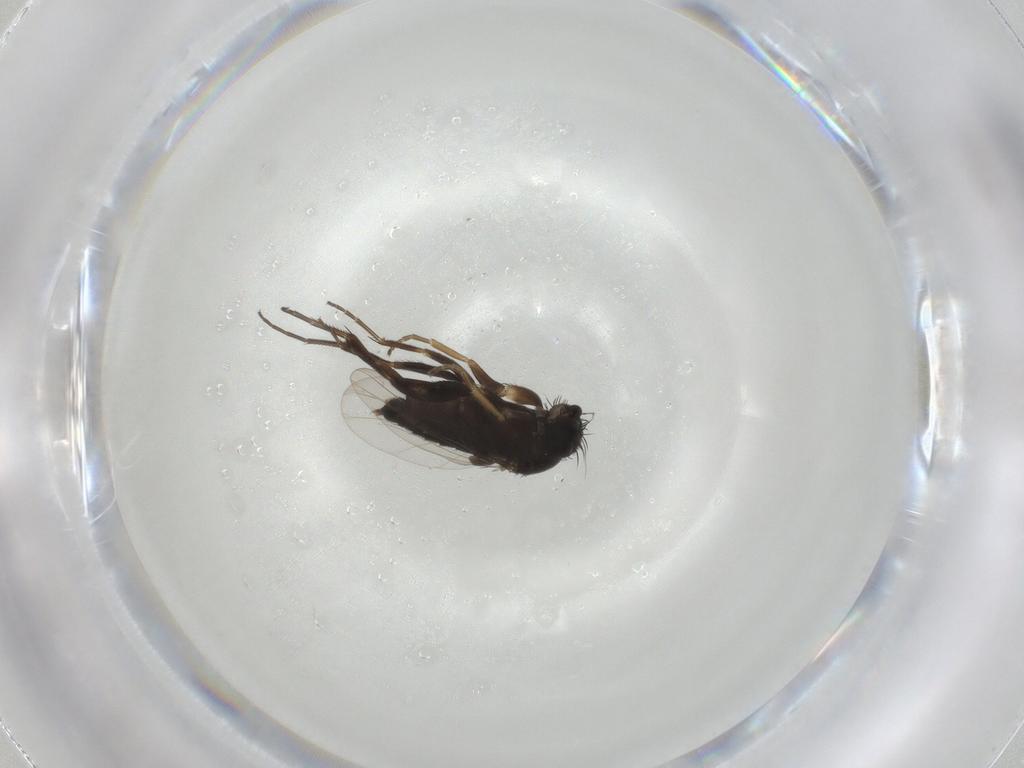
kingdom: Animalia
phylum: Arthropoda
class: Insecta
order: Diptera
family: Phoridae
